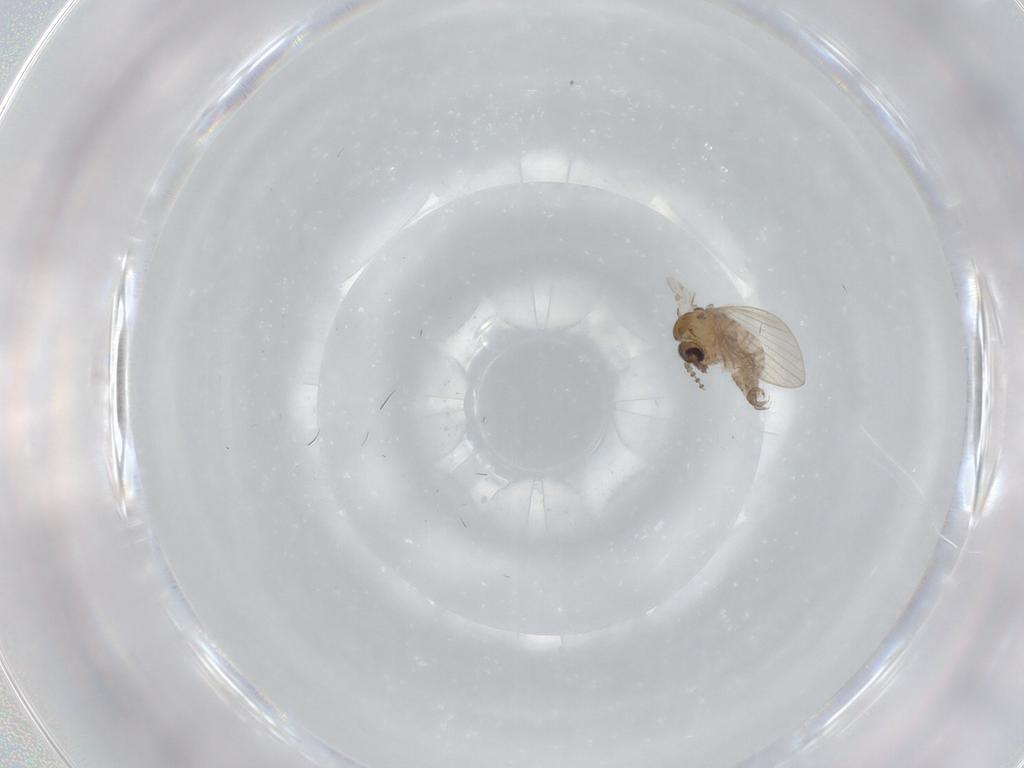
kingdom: Animalia
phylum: Arthropoda
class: Insecta
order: Diptera
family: Psychodidae
